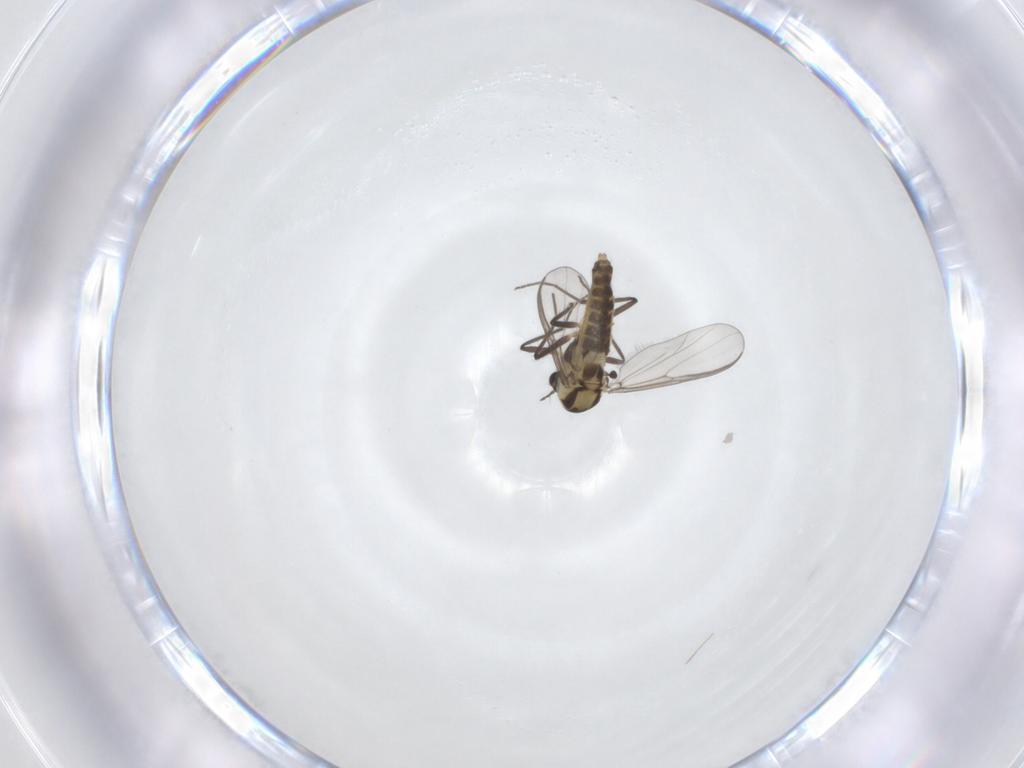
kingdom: Animalia
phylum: Arthropoda
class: Insecta
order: Diptera
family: Chironomidae
